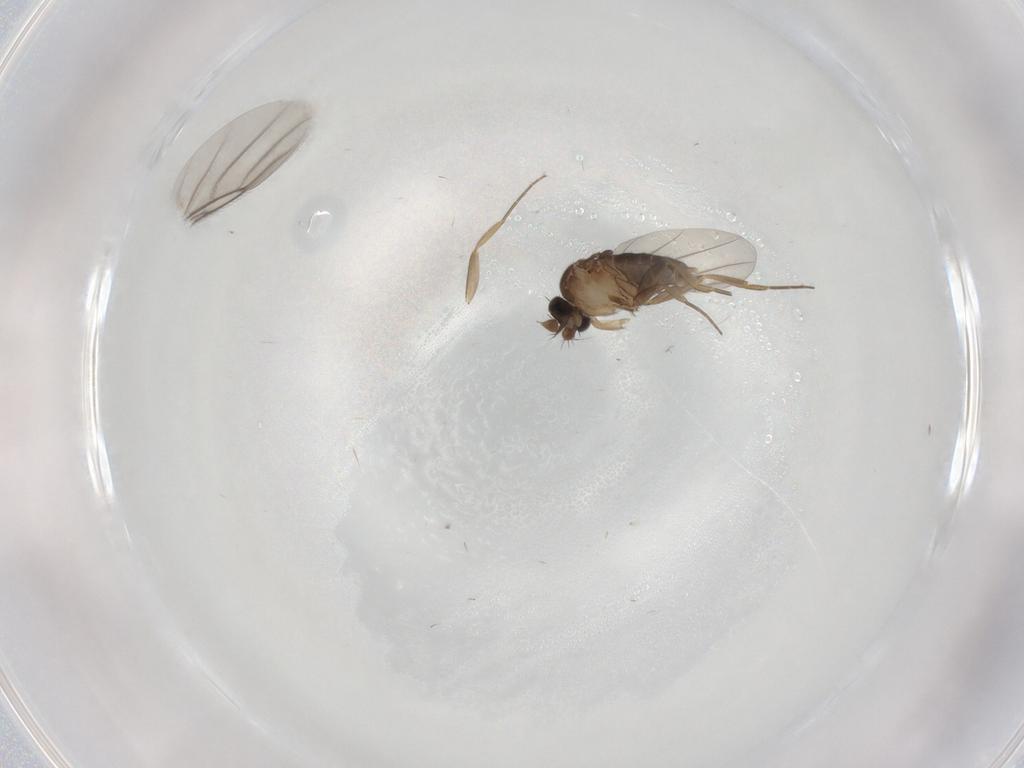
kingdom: Animalia
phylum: Arthropoda
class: Insecta
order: Diptera
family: Phoridae
